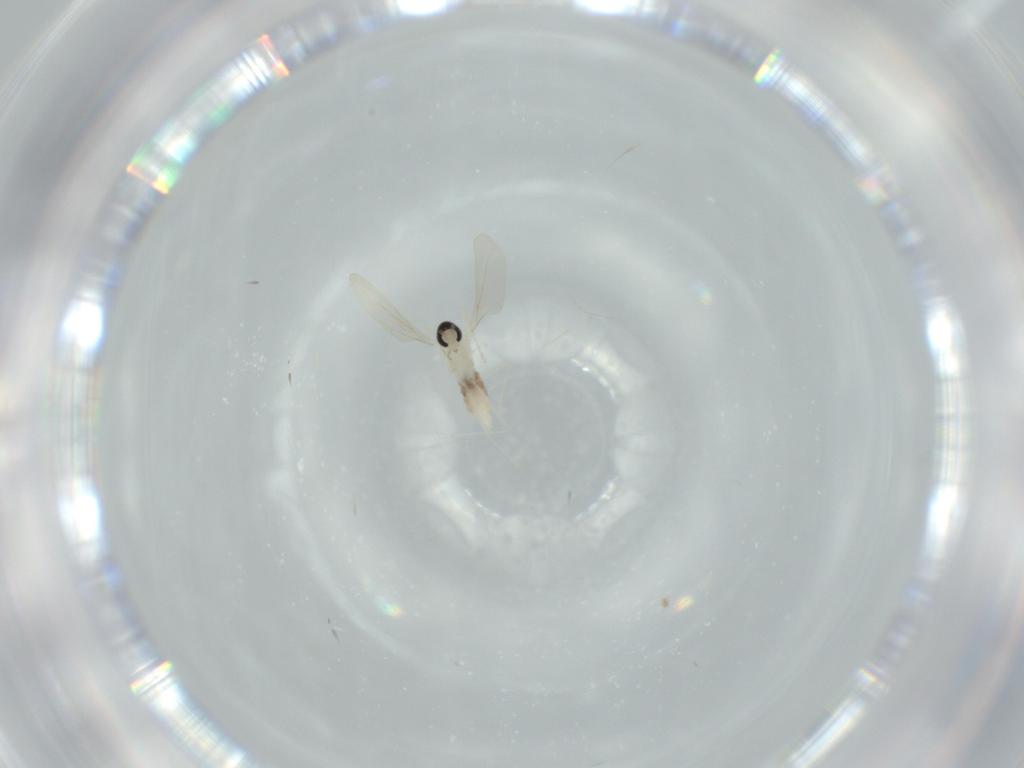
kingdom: Animalia
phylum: Arthropoda
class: Insecta
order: Diptera
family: Cecidomyiidae
